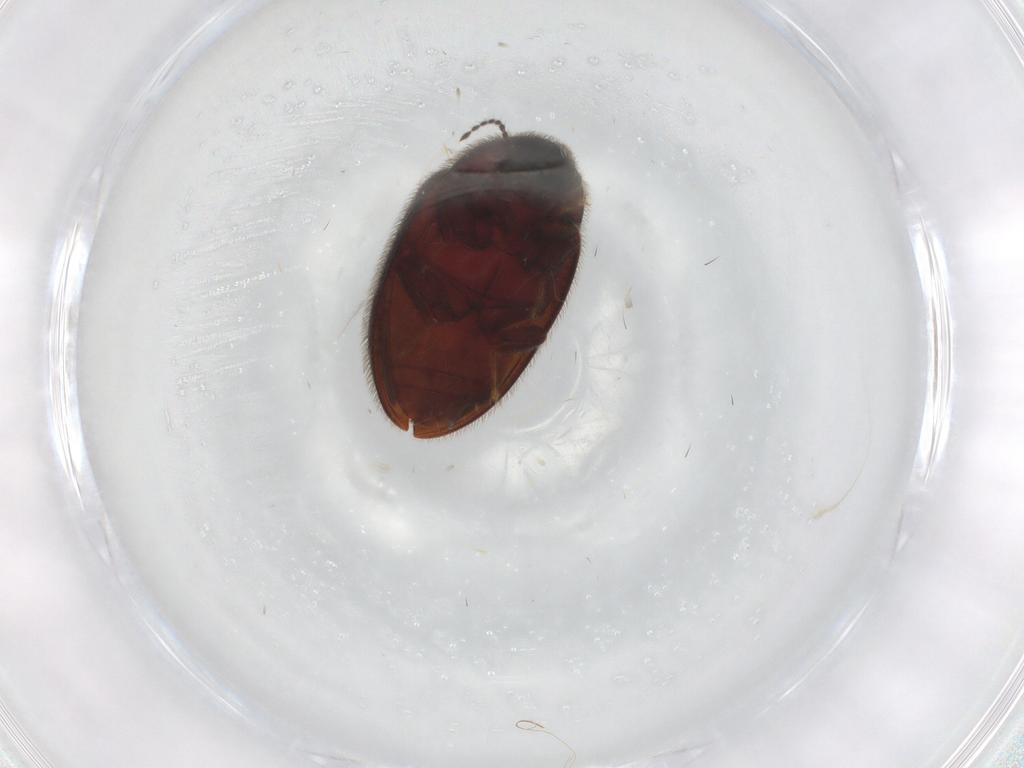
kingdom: Animalia
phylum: Arthropoda
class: Insecta
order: Coleoptera
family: Limnichidae
